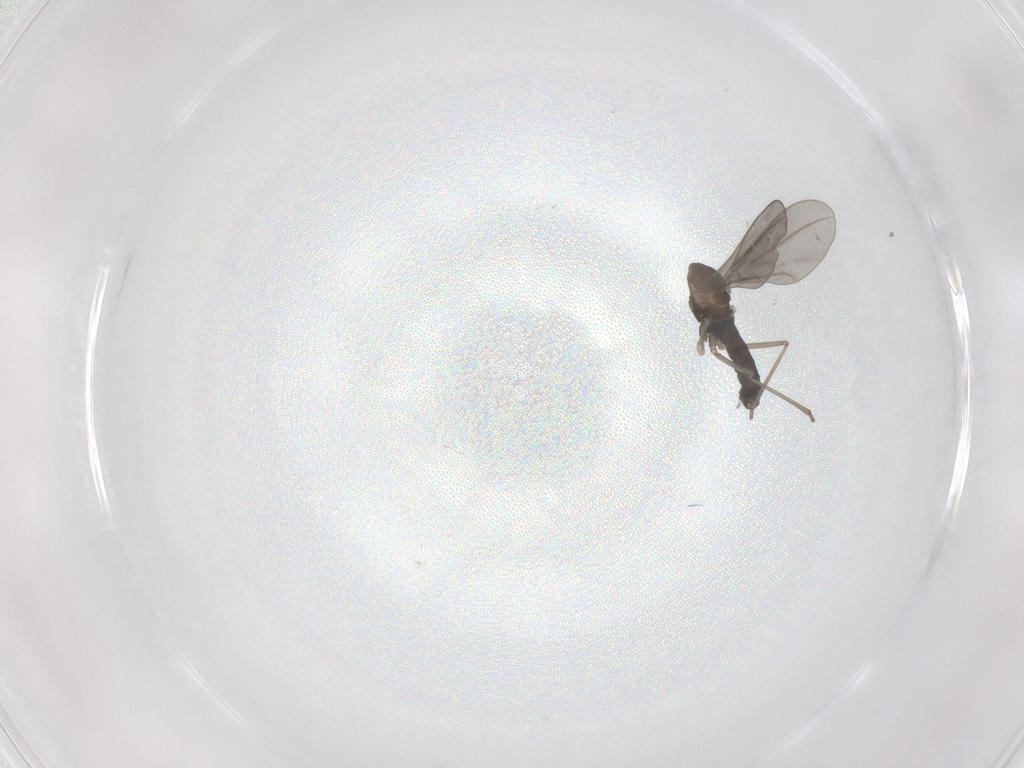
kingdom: Animalia
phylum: Arthropoda
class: Insecta
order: Diptera
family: Cecidomyiidae
